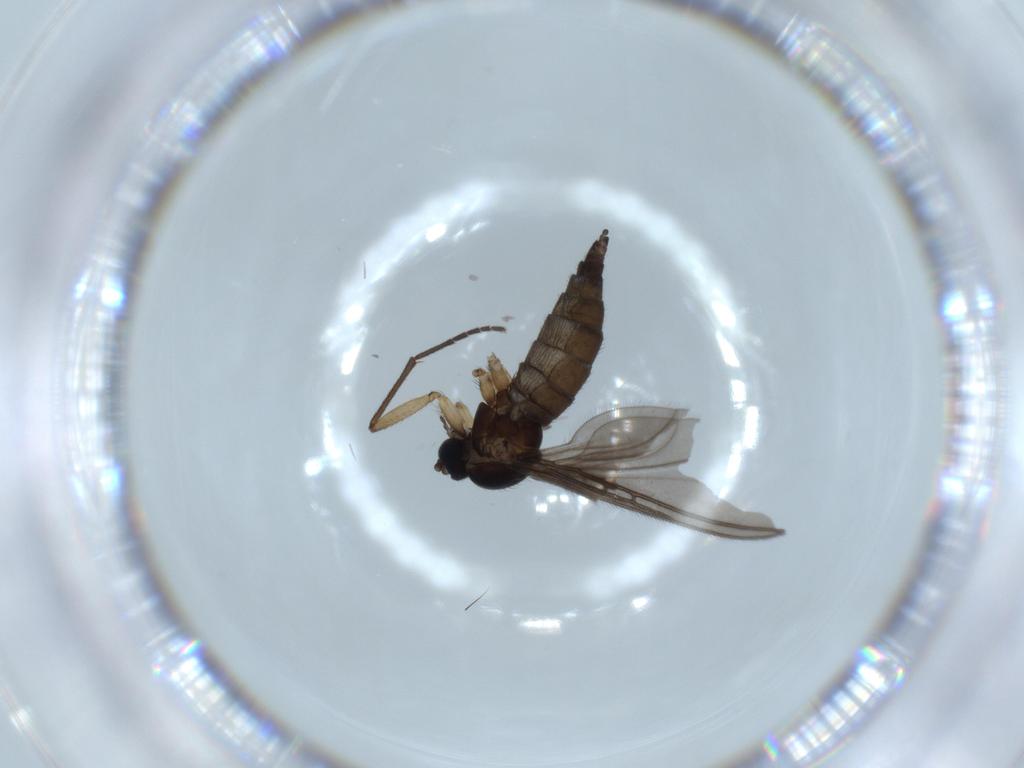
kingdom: Animalia
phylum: Arthropoda
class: Insecta
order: Diptera
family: Sciaridae
